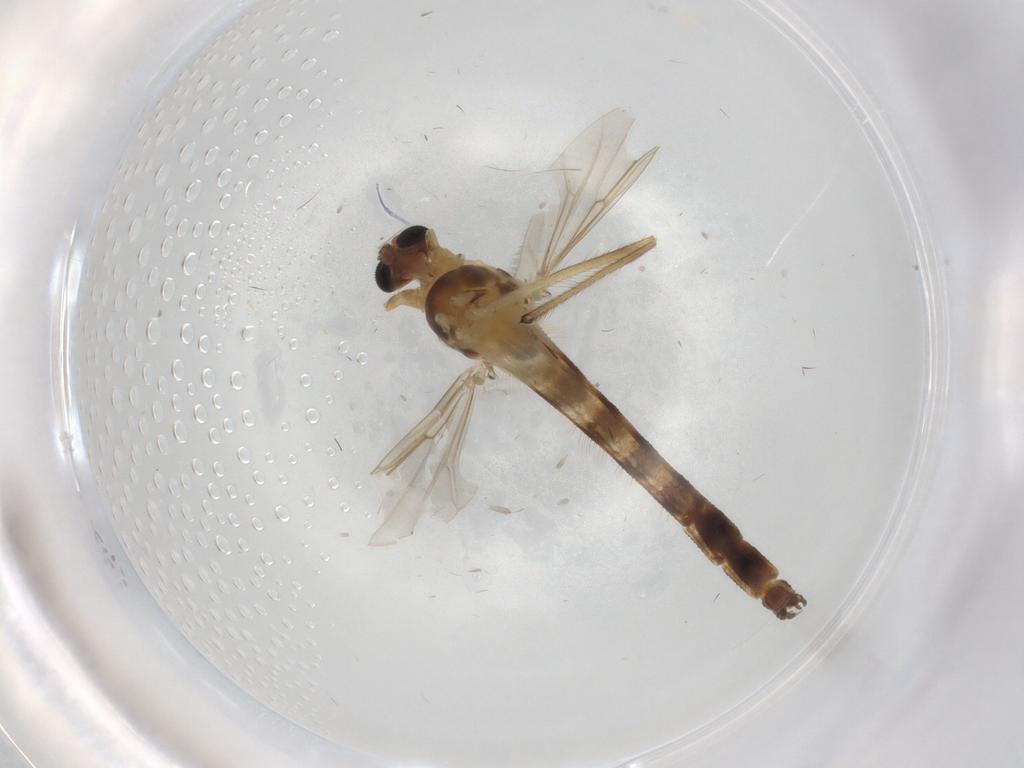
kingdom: Animalia
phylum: Arthropoda
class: Insecta
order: Diptera
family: Chironomidae
